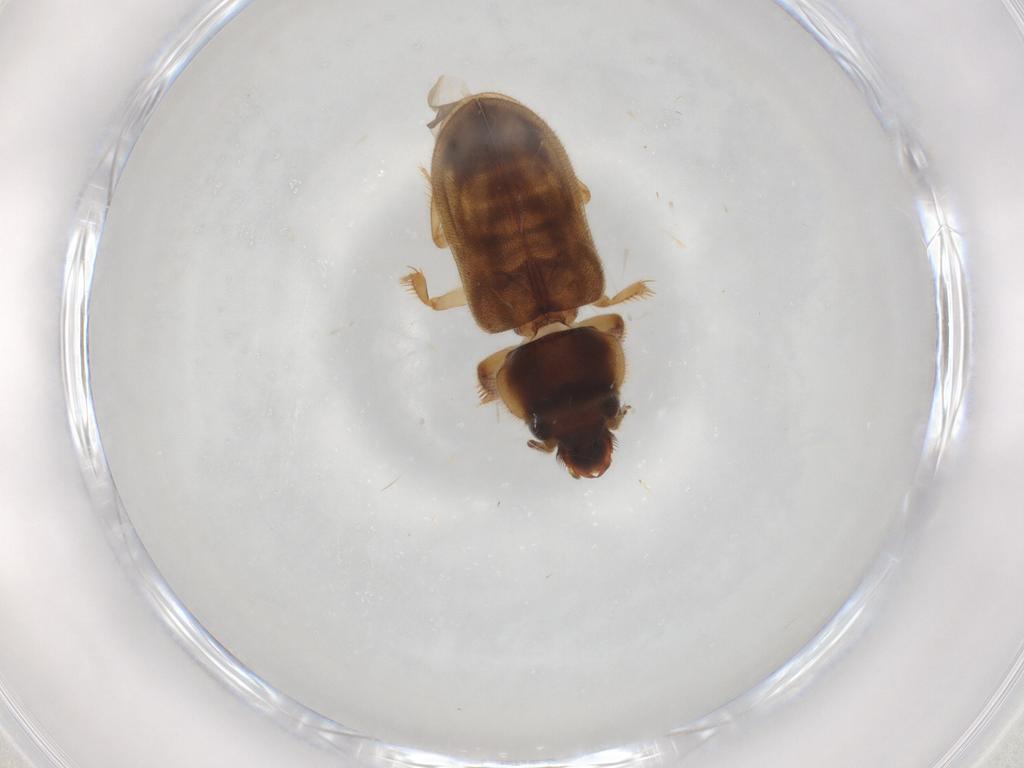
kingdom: Animalia
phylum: Arthropoda
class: Insecta
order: Coleoptera
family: Heteroceridae
